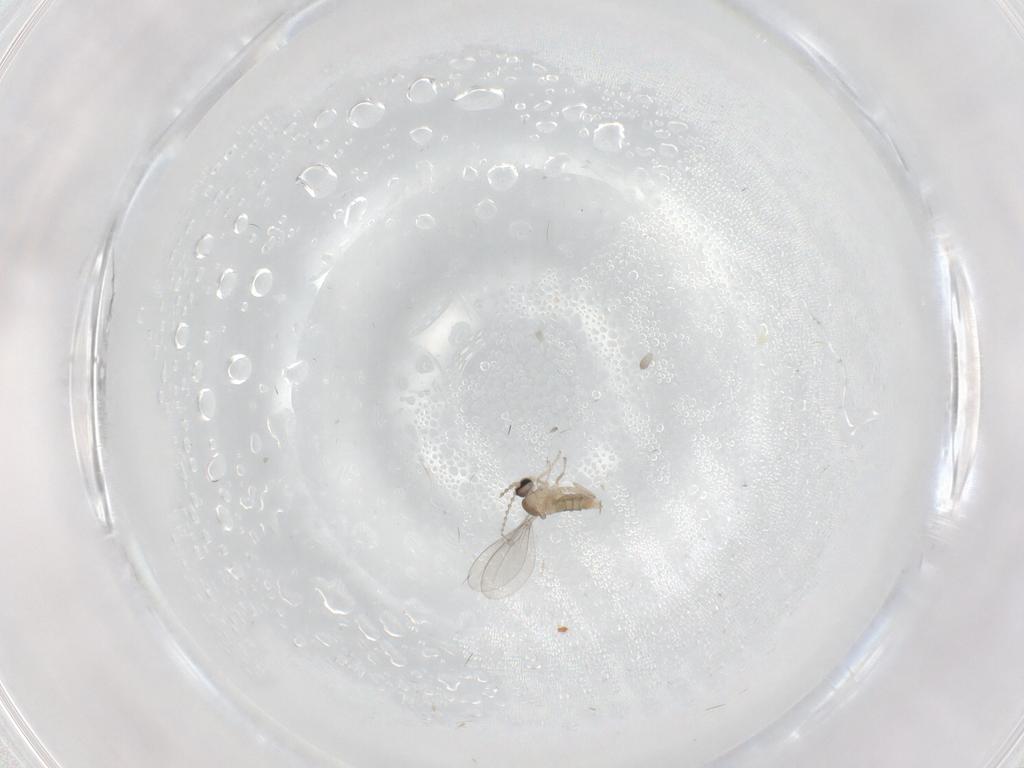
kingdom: Animalia
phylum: Arthropoda
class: Insecta
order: Diptera
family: Cecidomyiidae
